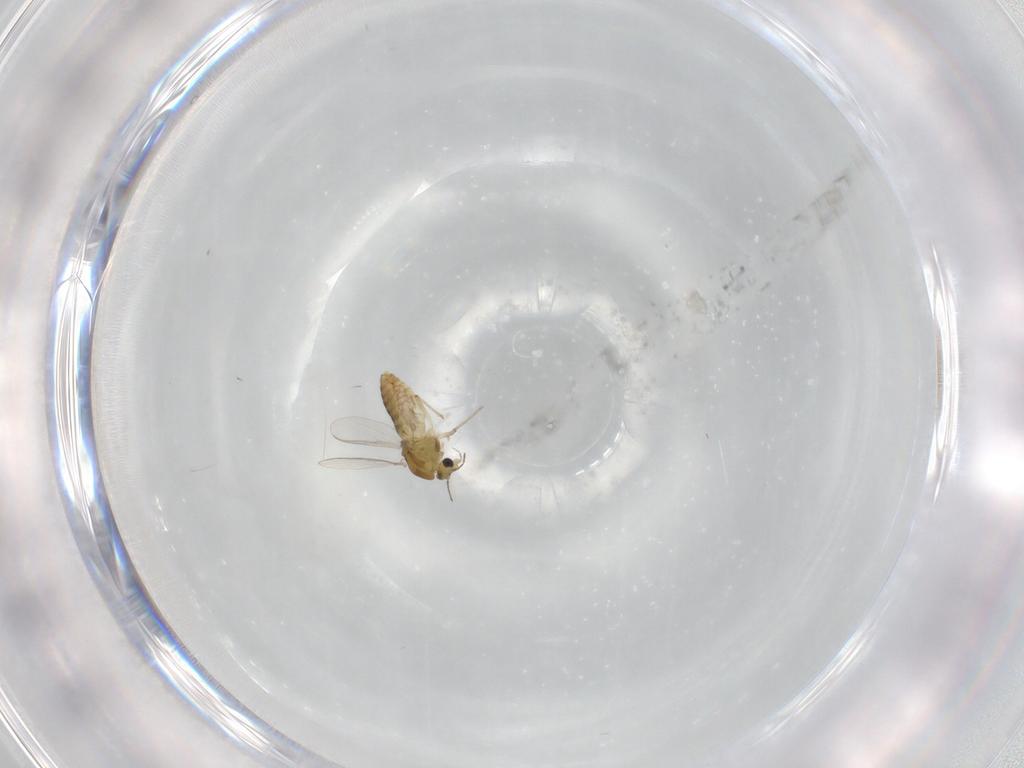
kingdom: Animalia
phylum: Arthropoda
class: Insecta
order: Diptera
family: Chironomidae
